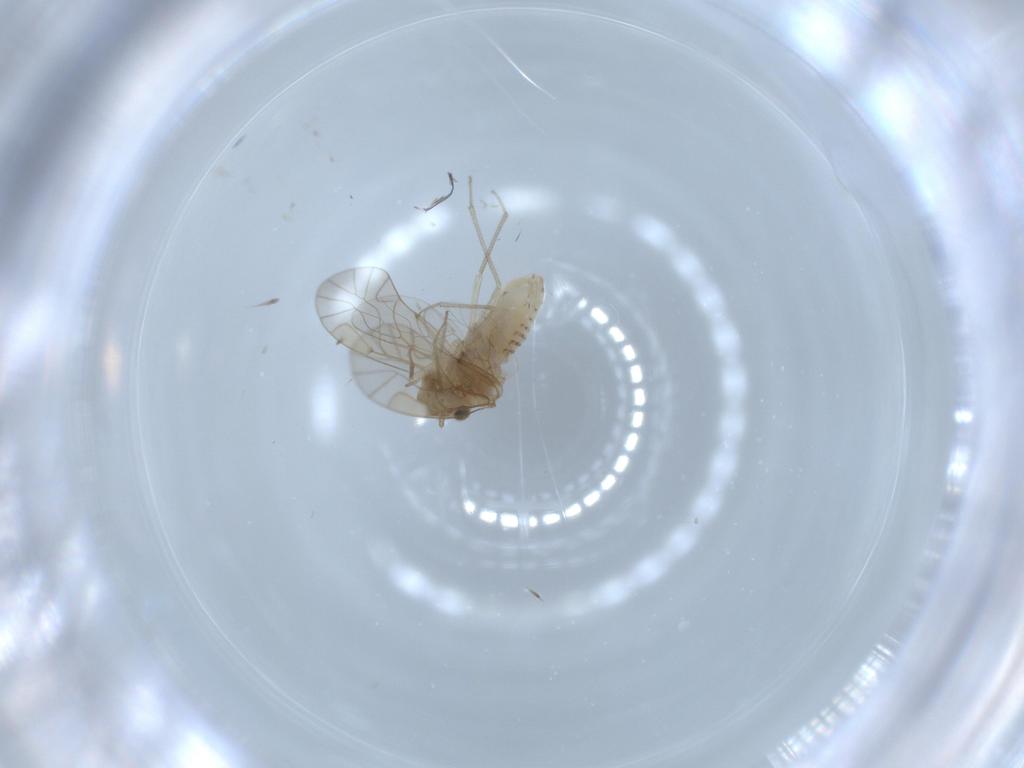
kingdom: Animalia
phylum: Arthropoda
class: Insecta
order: Psocodea
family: Lachesillidae
